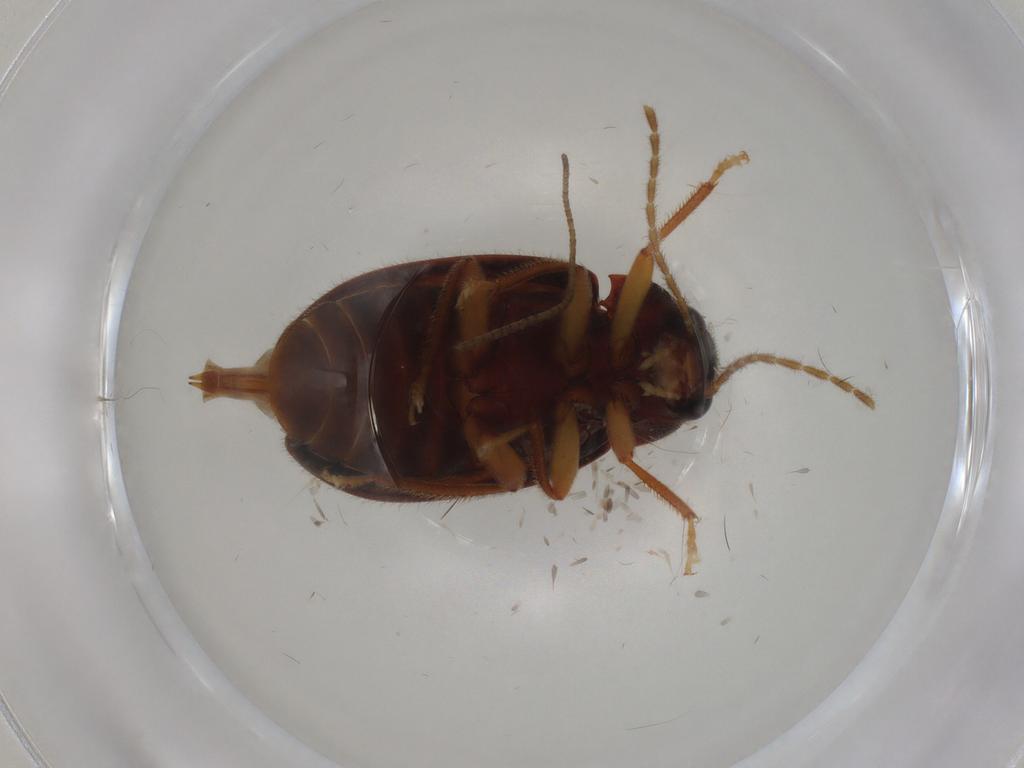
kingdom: Animalia
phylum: Arthropoda
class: Insecta
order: Coleoptera
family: Ptilodactylidae
